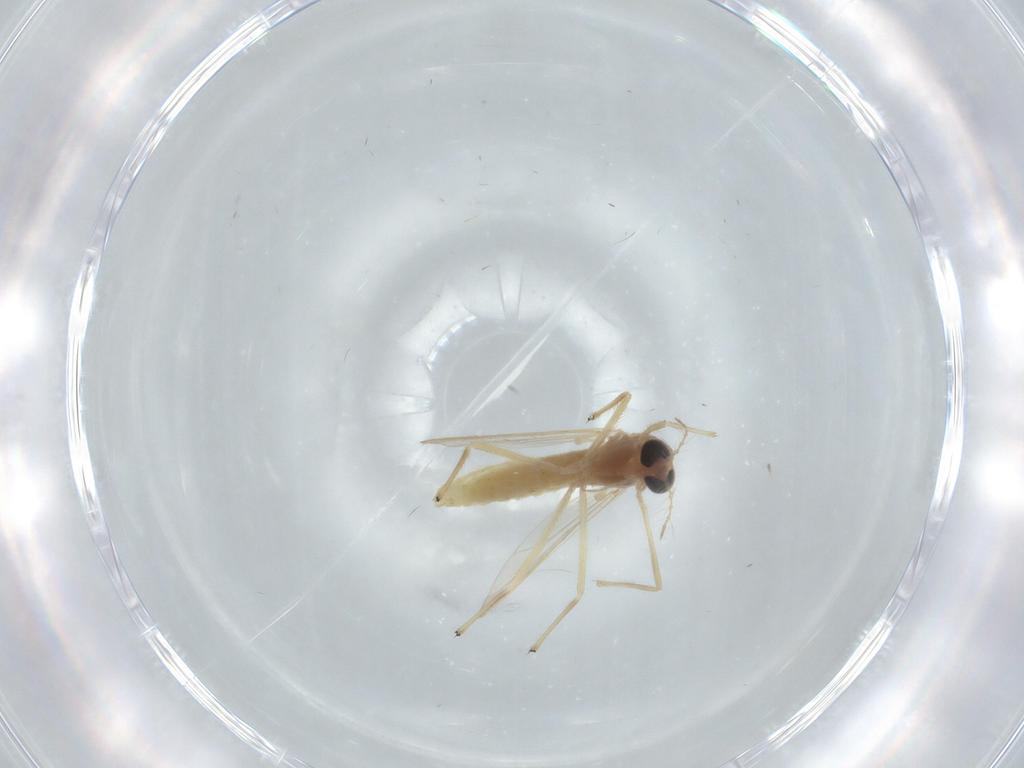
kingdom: Animalia
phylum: Arthropoda
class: Insecta
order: Diptera
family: Chironomidae
